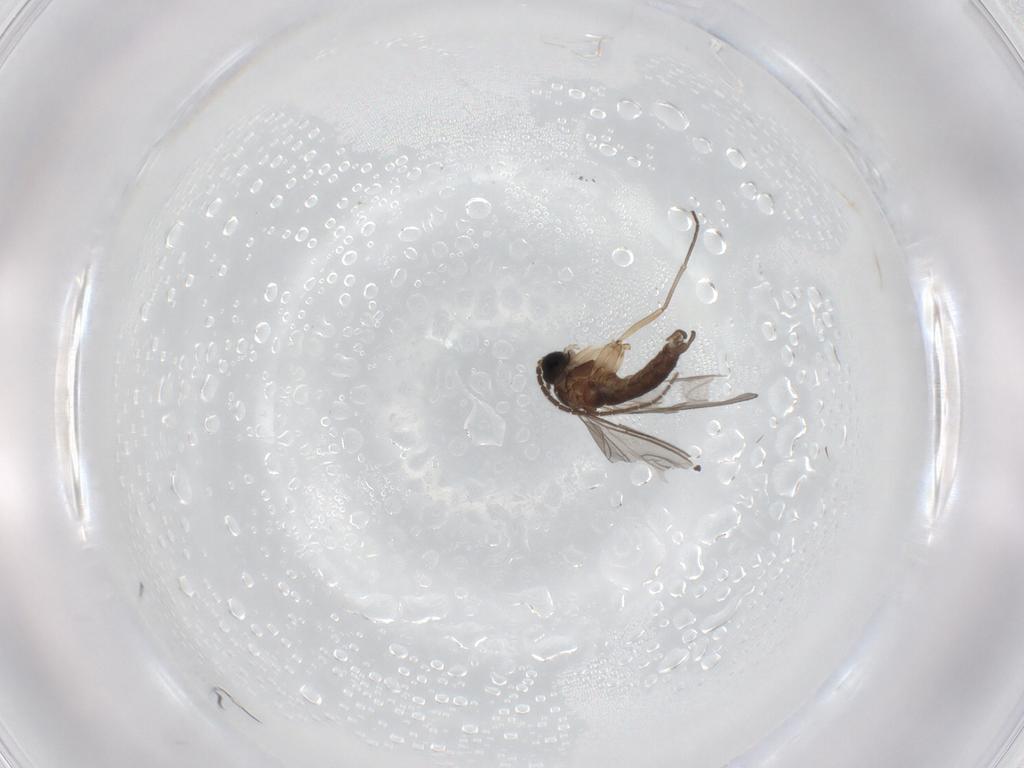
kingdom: Animalia
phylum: Arthropoda
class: Insecta
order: Diptera
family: Sciaridae
